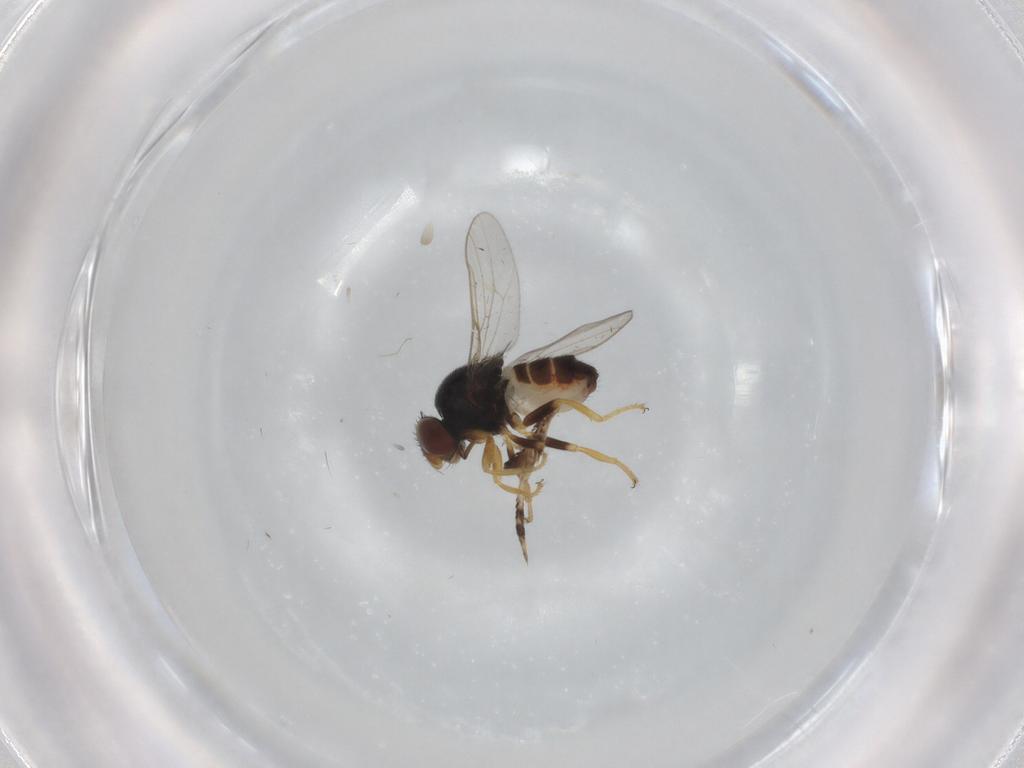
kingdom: Animalia
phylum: Arthropoda
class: Insecta
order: Diptera
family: Chloropidae
